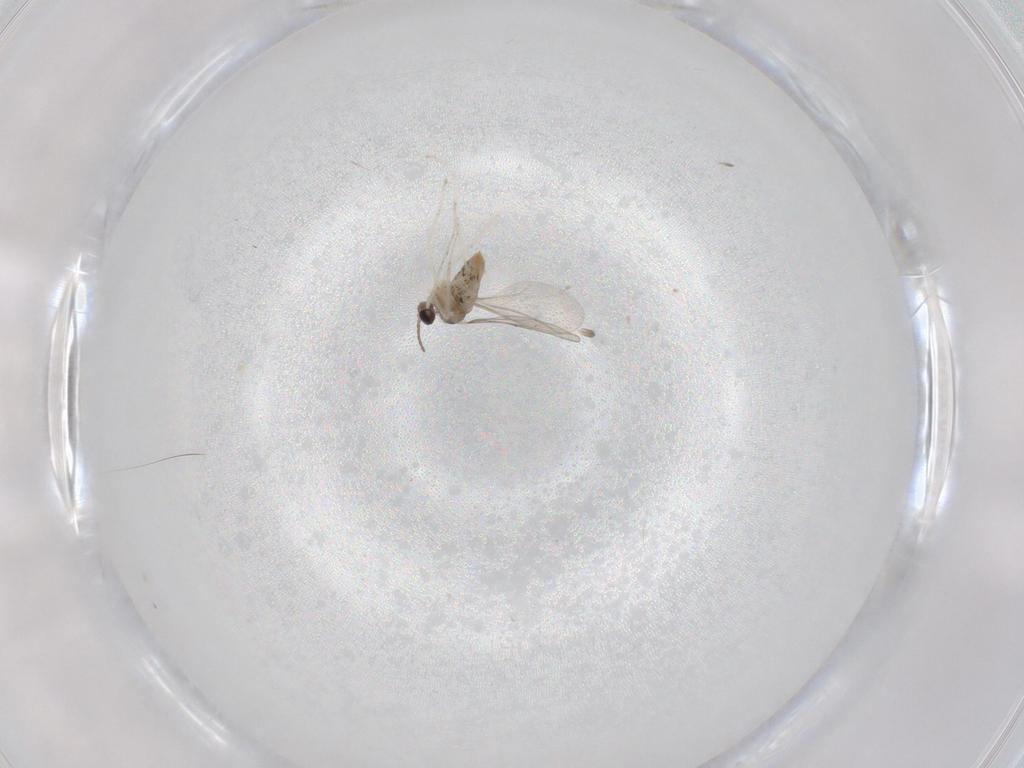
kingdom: Animalia
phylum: Arthropoda
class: Insecta
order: Diptera
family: Cecidomyiidae
